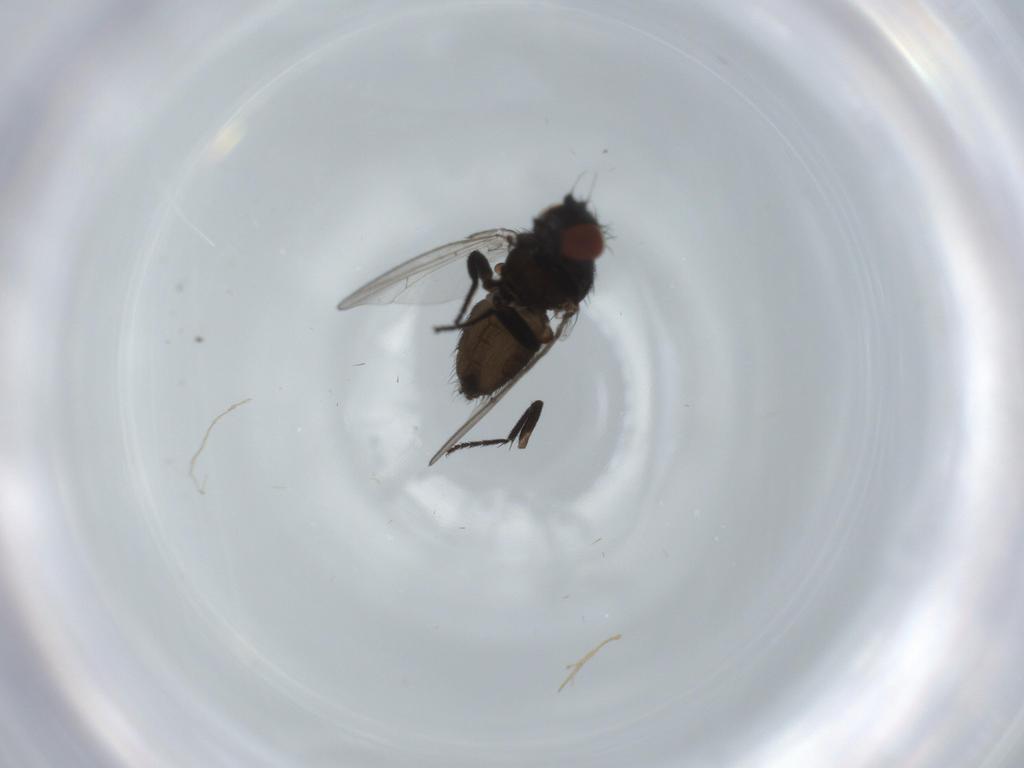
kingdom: Animalia
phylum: Arthropoda
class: Insecta
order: Diptera
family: Milichiidae
